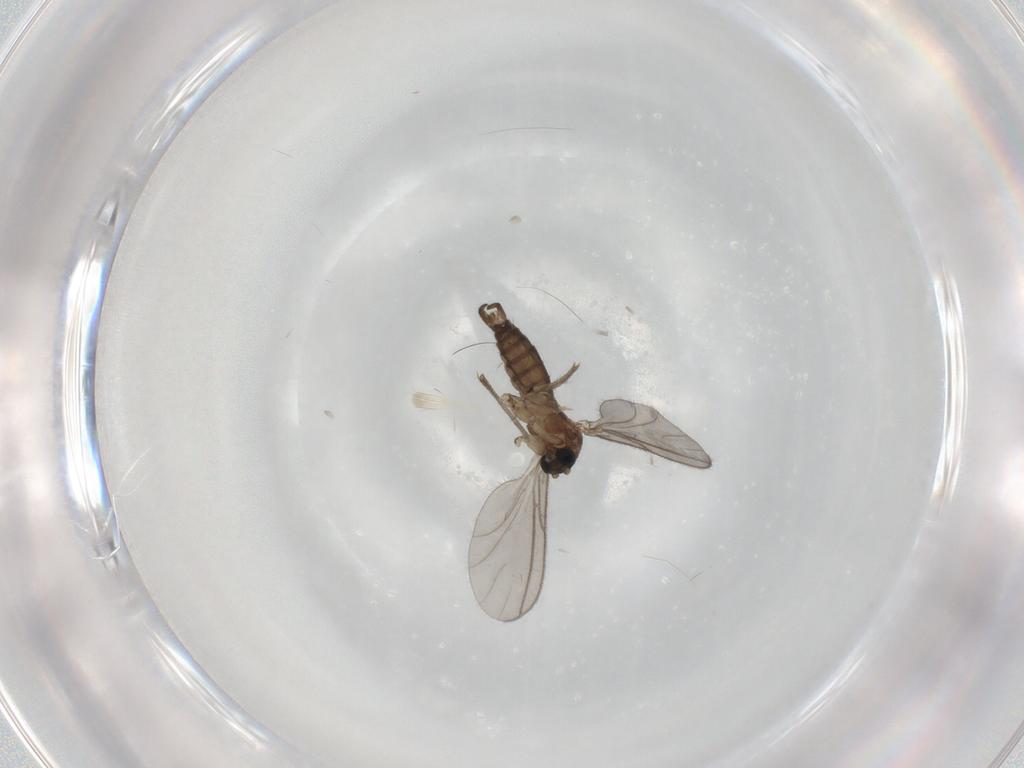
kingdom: Animalia
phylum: Arthropoda
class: Insecta
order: Diptera
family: Sciaridae
